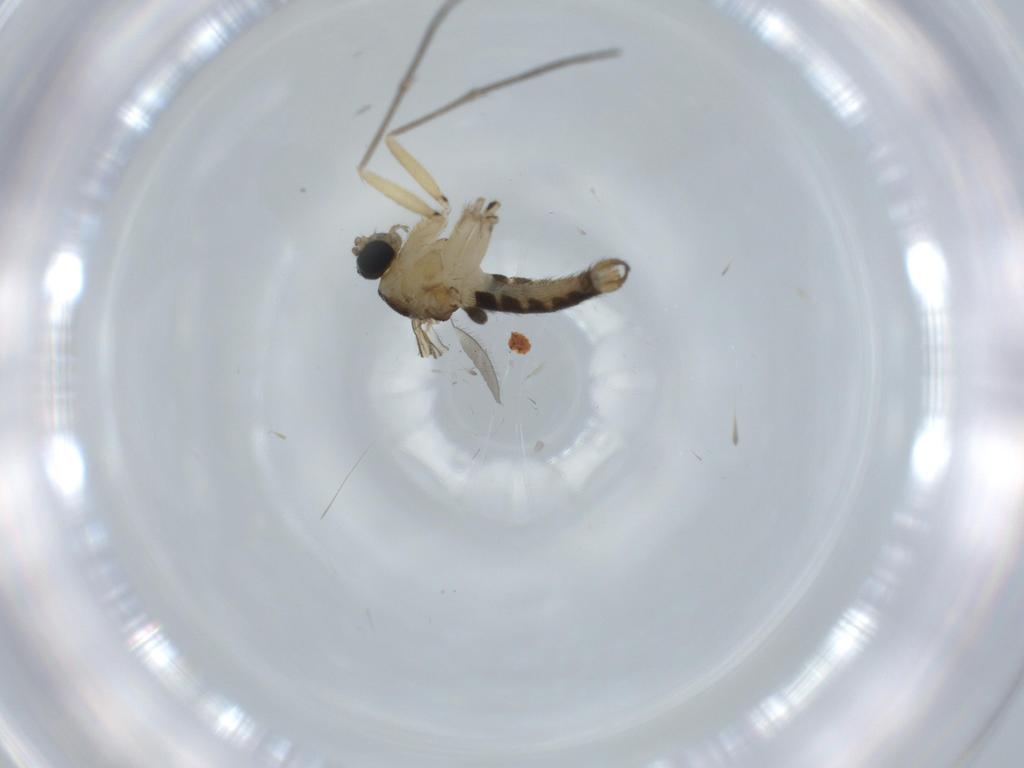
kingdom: Animalia
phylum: Arthropoda
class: Insecta
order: Diptera
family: Sciaridae
